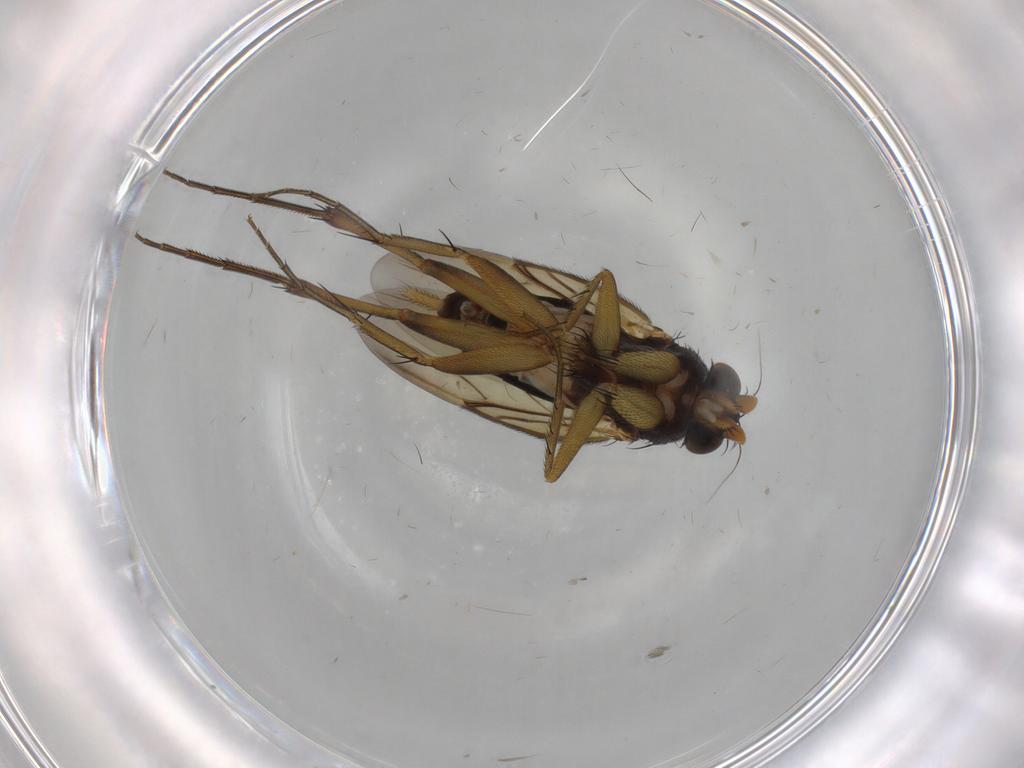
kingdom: Animalia
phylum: Arthropoda
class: Insecta
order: Diptera
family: Phoridae
